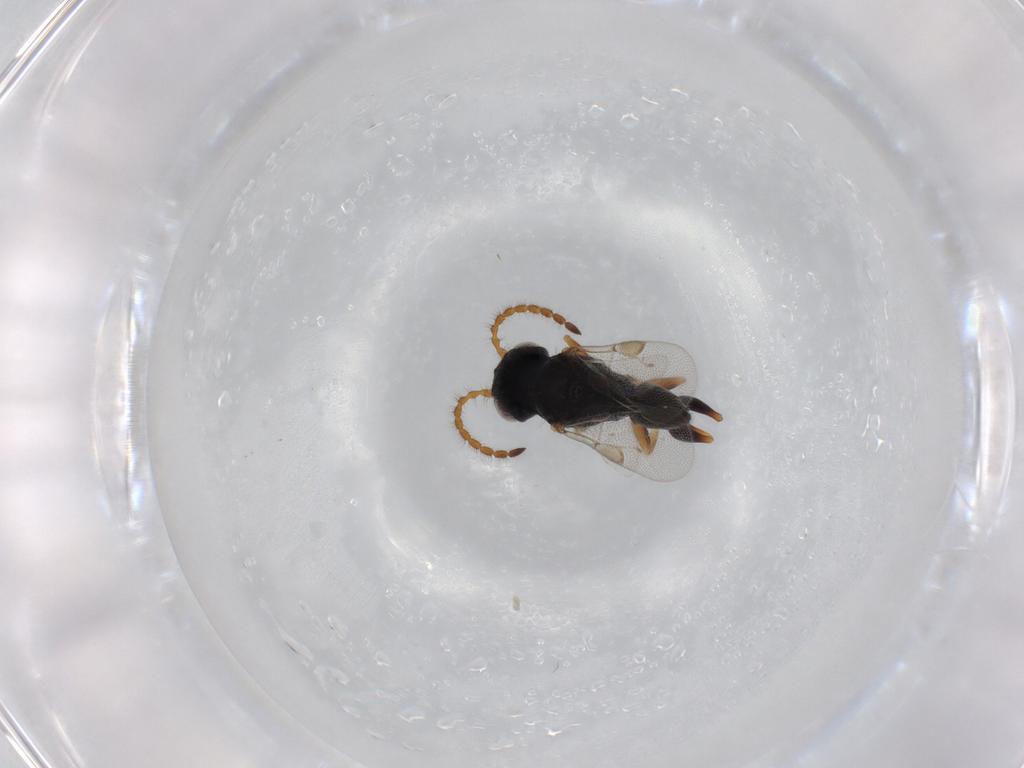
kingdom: Animalia
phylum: Arthropoda
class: Insecta
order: Hymenoptera
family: Dryinidae
